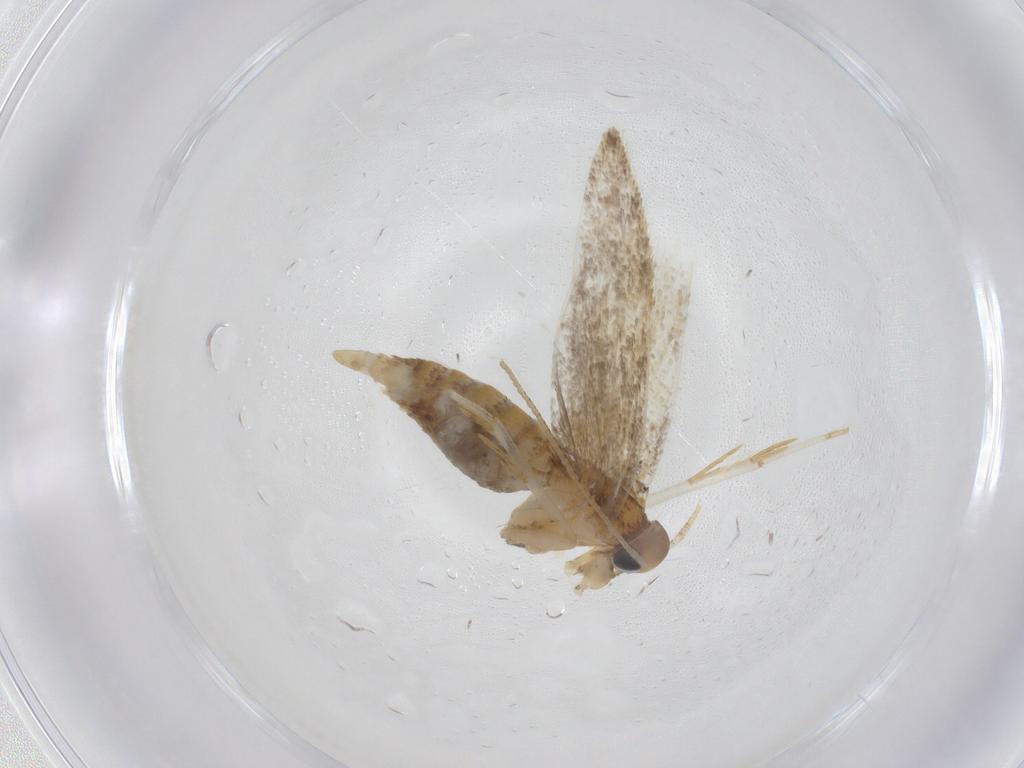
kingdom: Animalia
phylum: Arthropoda
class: Insecta
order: Lepidoptera
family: Oecophoridae
